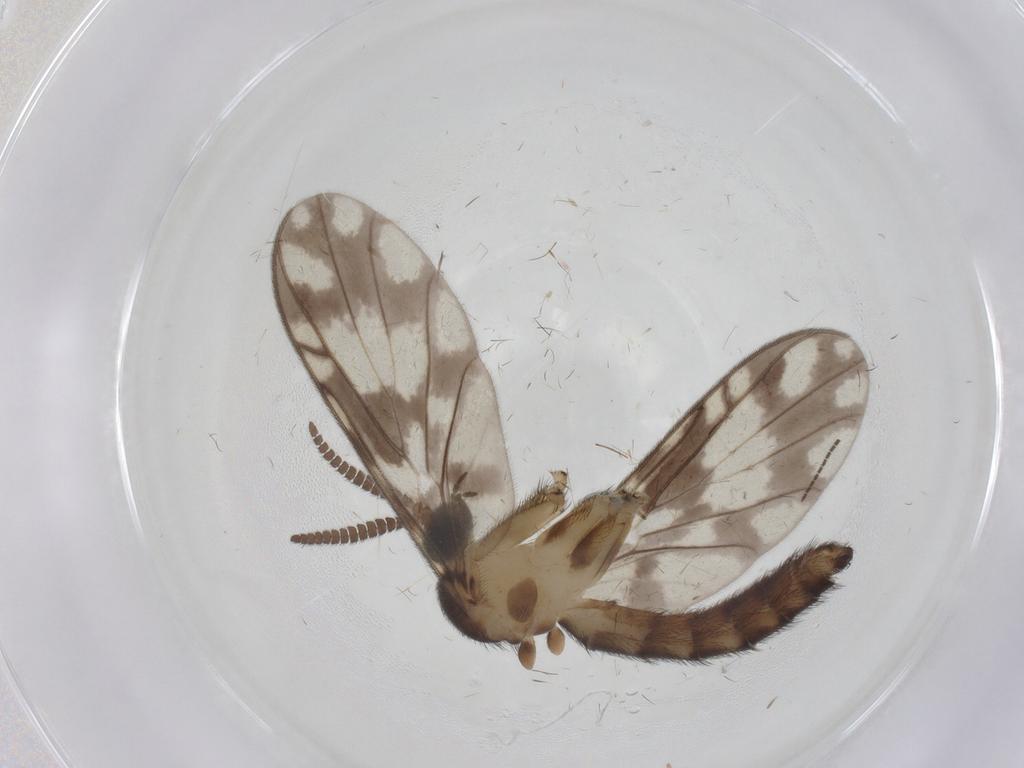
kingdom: Animalia
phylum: Arthropoda
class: Insecta
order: Diptera
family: Keroplatidae
